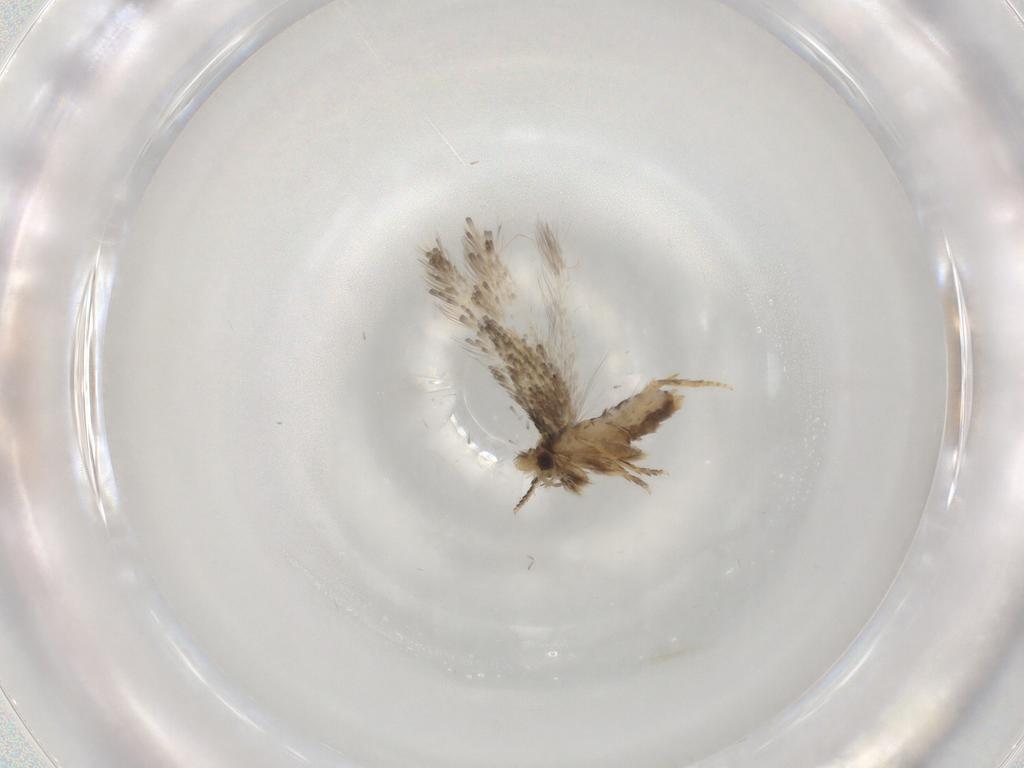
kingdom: Animalia
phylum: Arthropoda
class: Insecta
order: Lepidoptera
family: Nepticulidae
